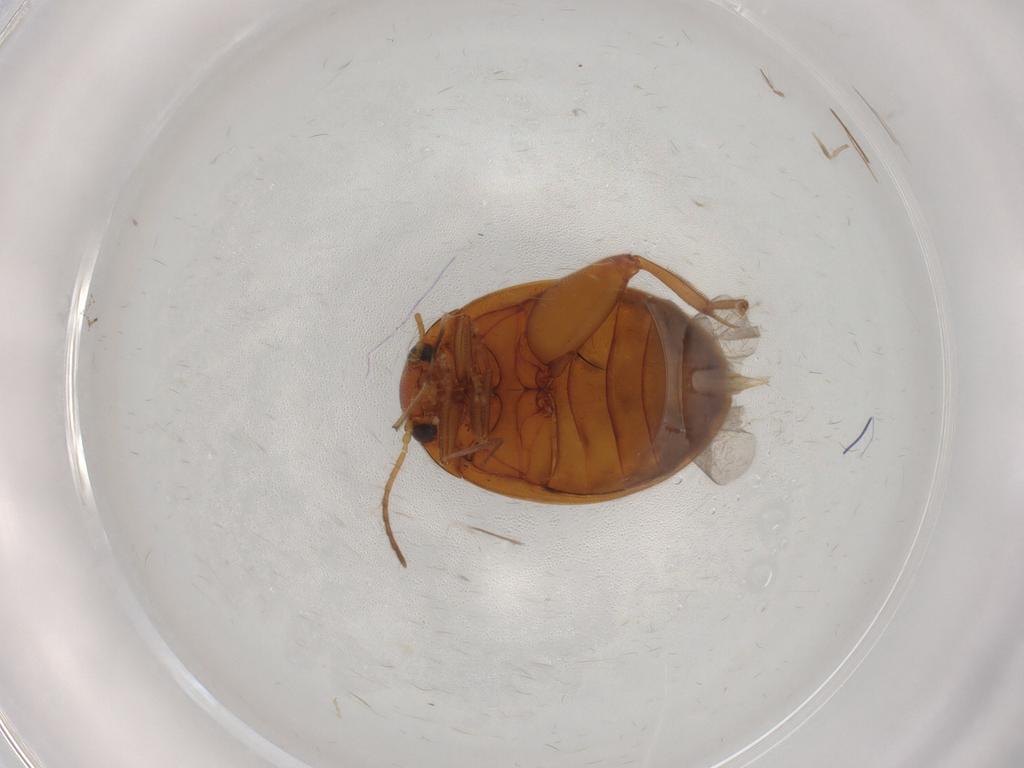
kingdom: Animalia
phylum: Arthropoda
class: Insecta
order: Coleoptera
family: Scirtidae
